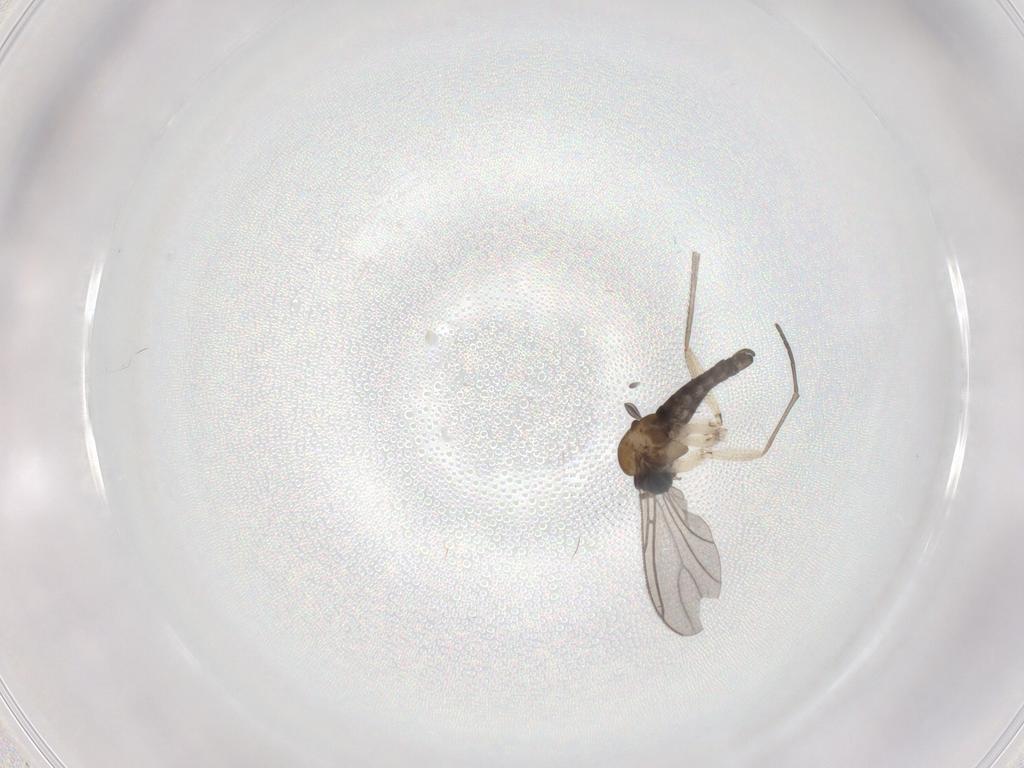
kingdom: Animalia
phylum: Arthropoda
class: Insecta
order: Diptera
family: Sciaridae
